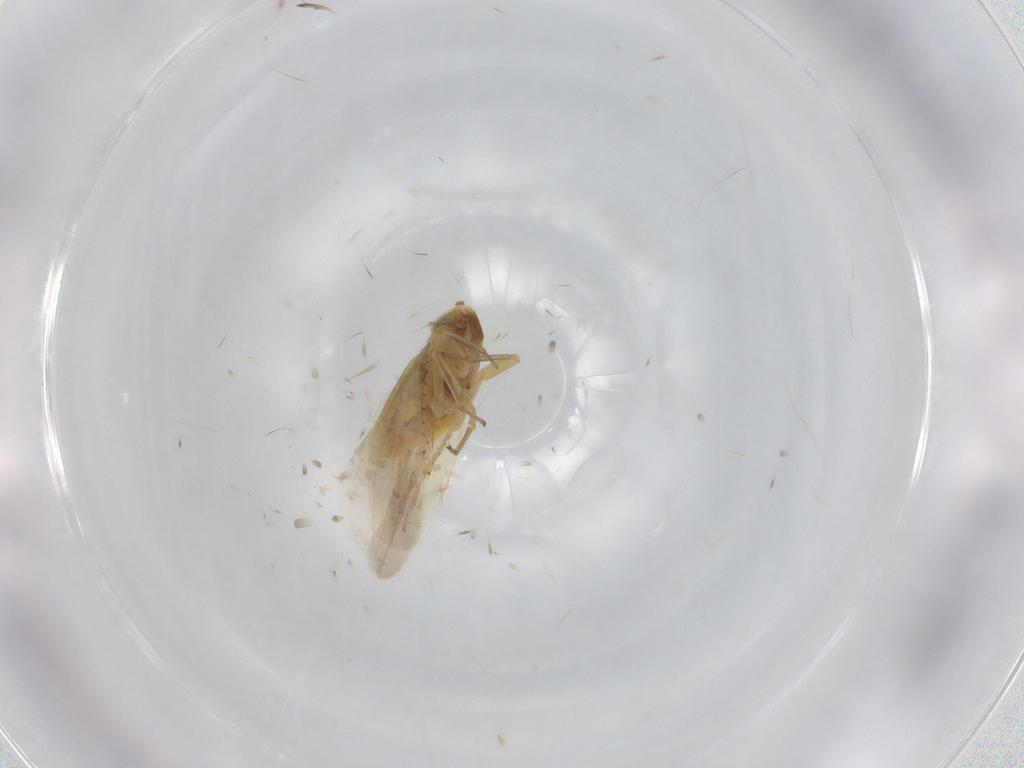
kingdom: Animalia
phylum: Arthropoda
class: Insecta
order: Hemiptera
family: Cicadellidae
